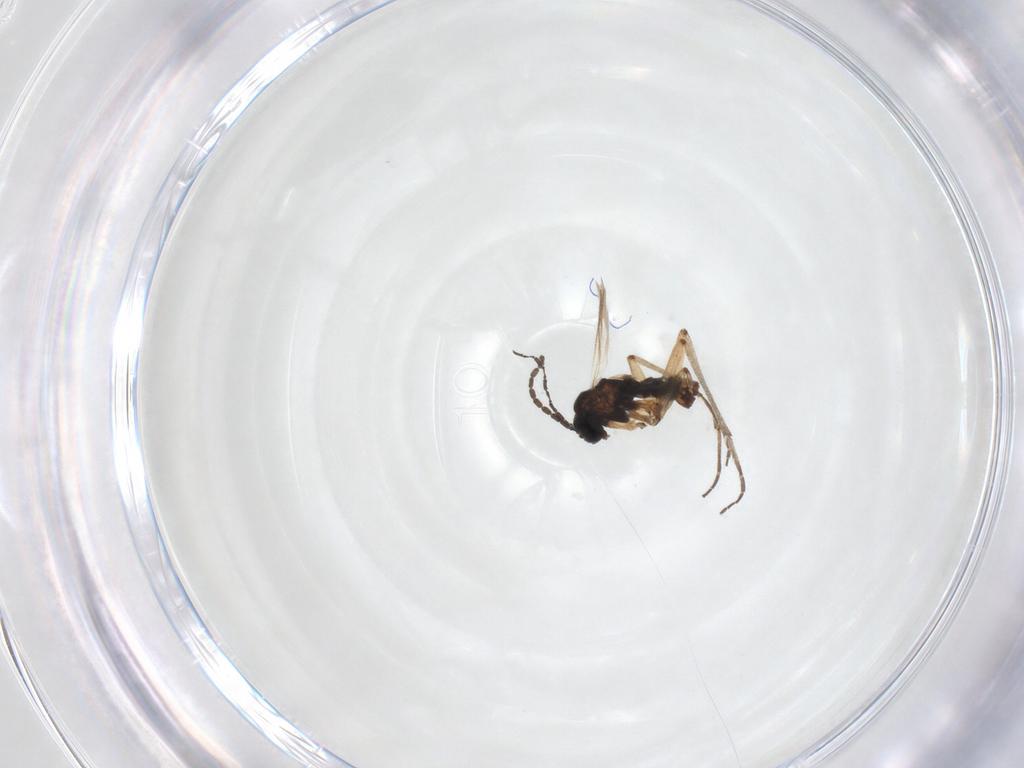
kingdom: Animalia
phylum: Arthropoda
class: Insecta
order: Diptera
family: Sciaridae
